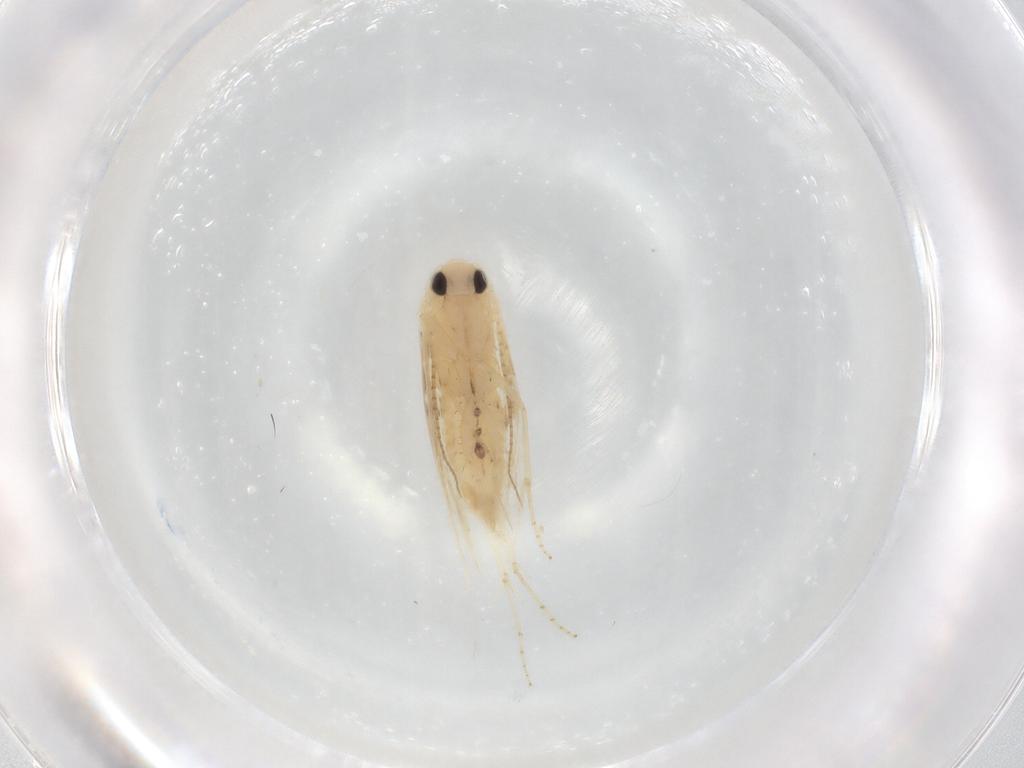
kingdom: Animalia
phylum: Arthropoda
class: Insecta
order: Lepidoptera
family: Bucculatricidae
